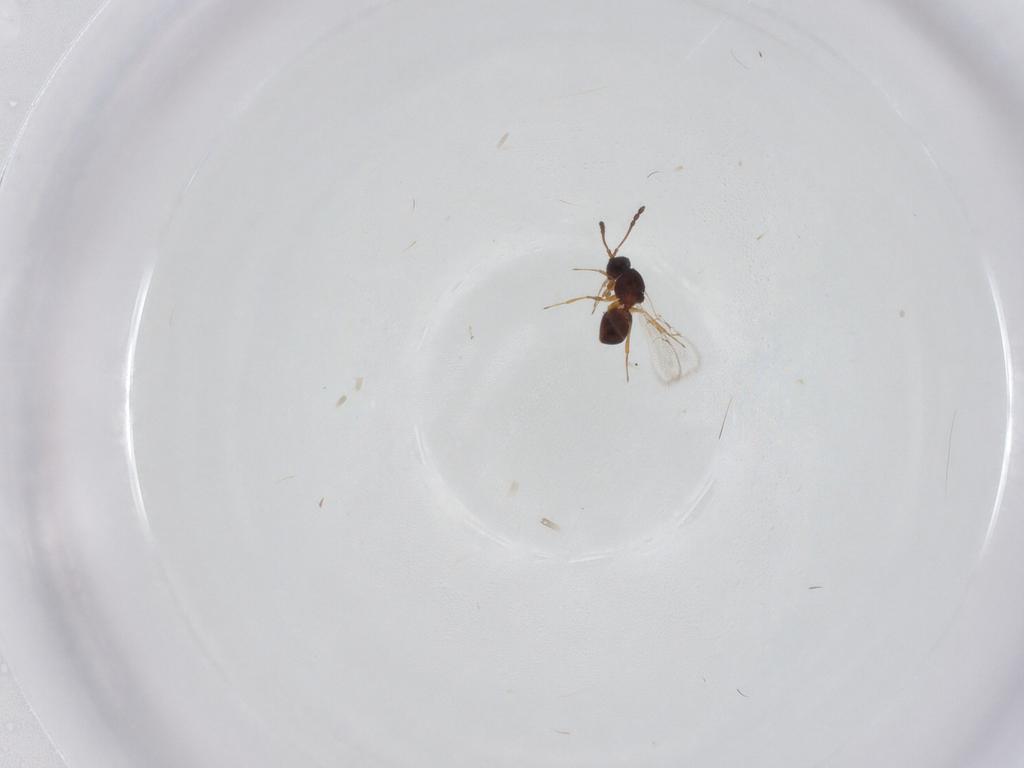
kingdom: Animalia
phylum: Arthropoda
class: Insecta
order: Hymenoptera
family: Figitidae
